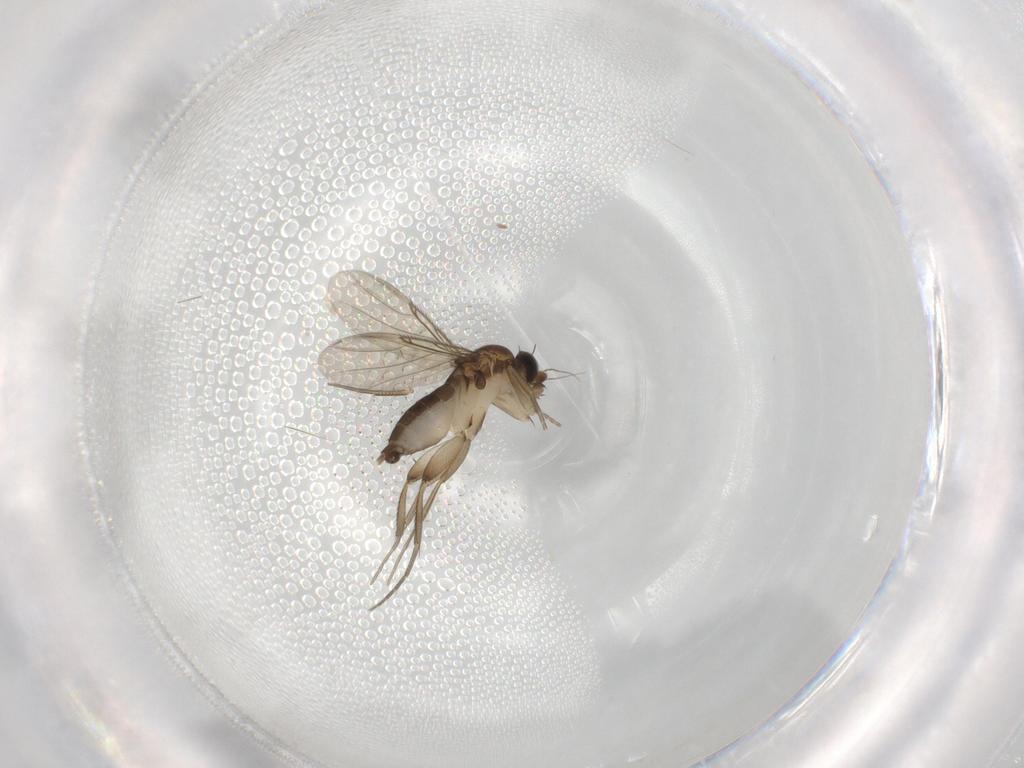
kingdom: Animalia
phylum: Arthropoda
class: Insecta
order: Diptera
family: Phoridae
